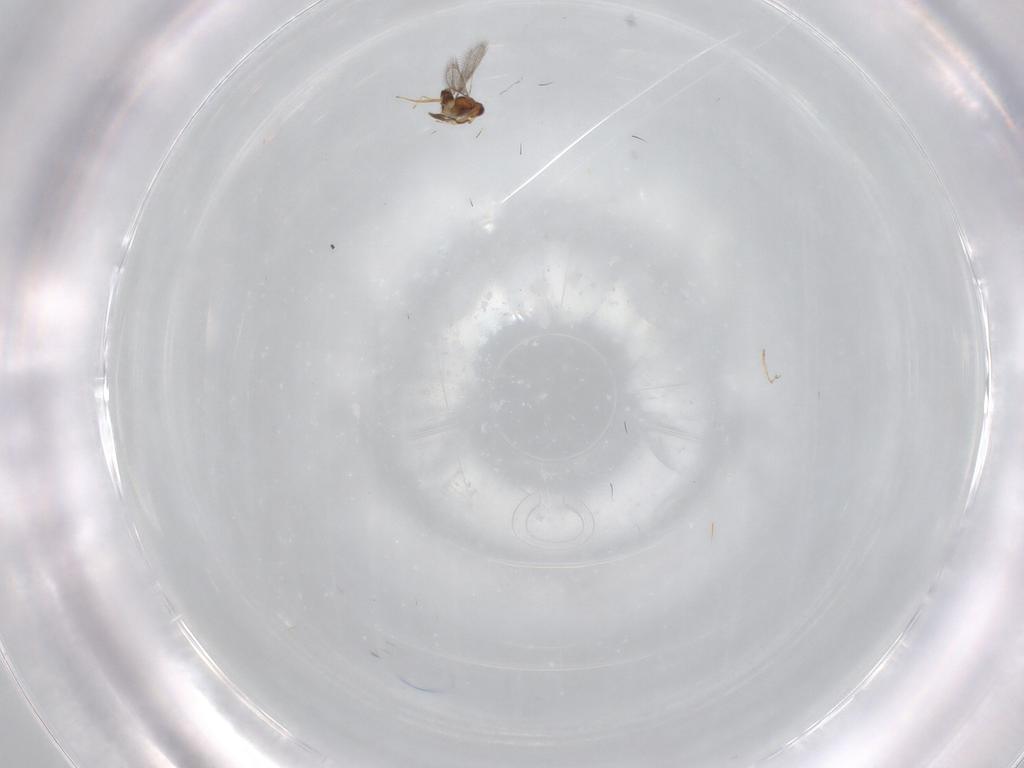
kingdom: Animalia
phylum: Arthropoda
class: Insecta
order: Hymenoptera
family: Mymaridae
